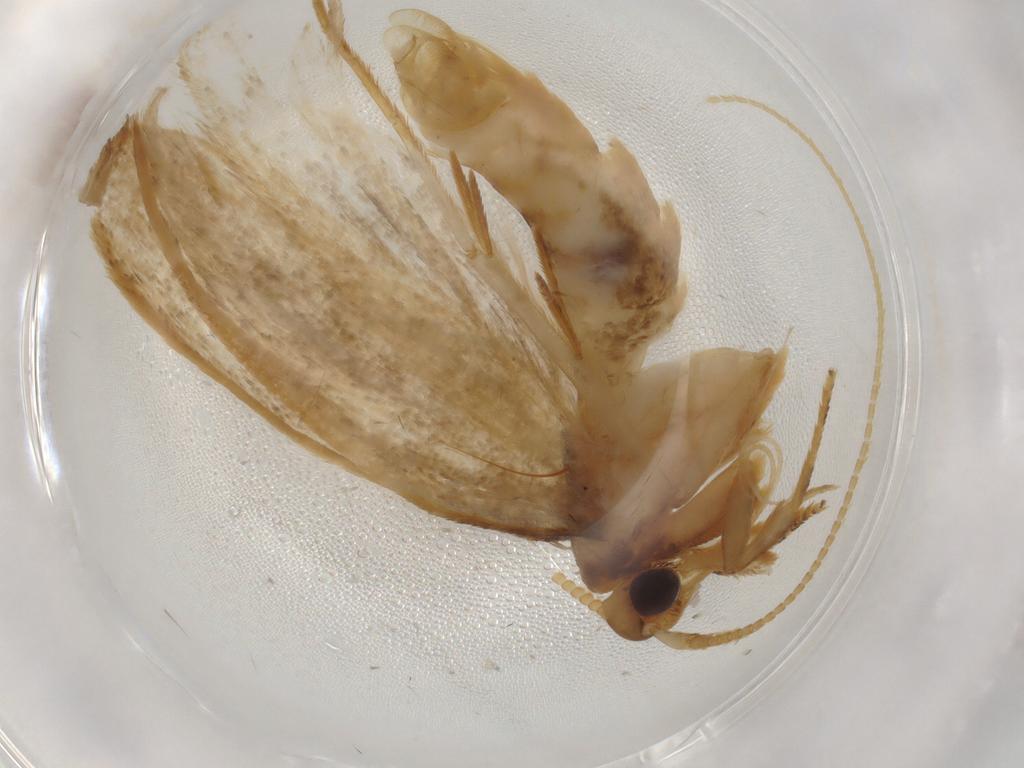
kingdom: Animalia
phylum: Arthropoda
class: Insecta
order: Lepidoptera
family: Lecithoceridae
